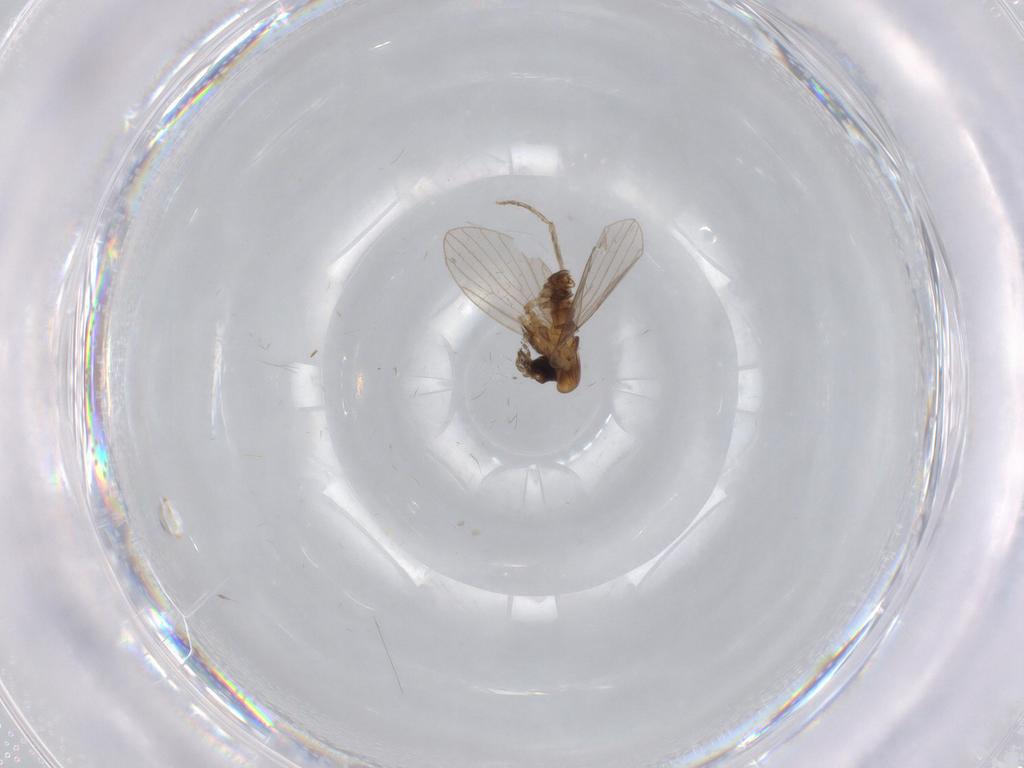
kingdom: Animalia
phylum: Arthropoda
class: Insecta
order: Diptera
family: Psychodidae
